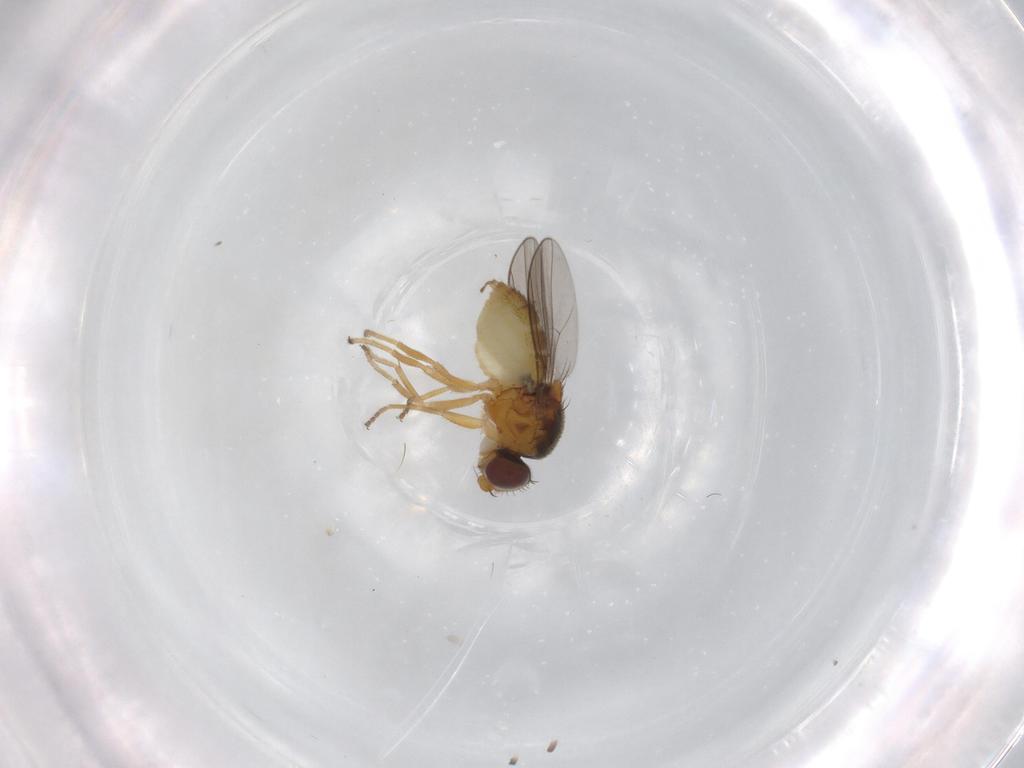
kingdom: Animalia
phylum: Arthropoda
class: Insecta
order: Diptera
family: Chloropidae
